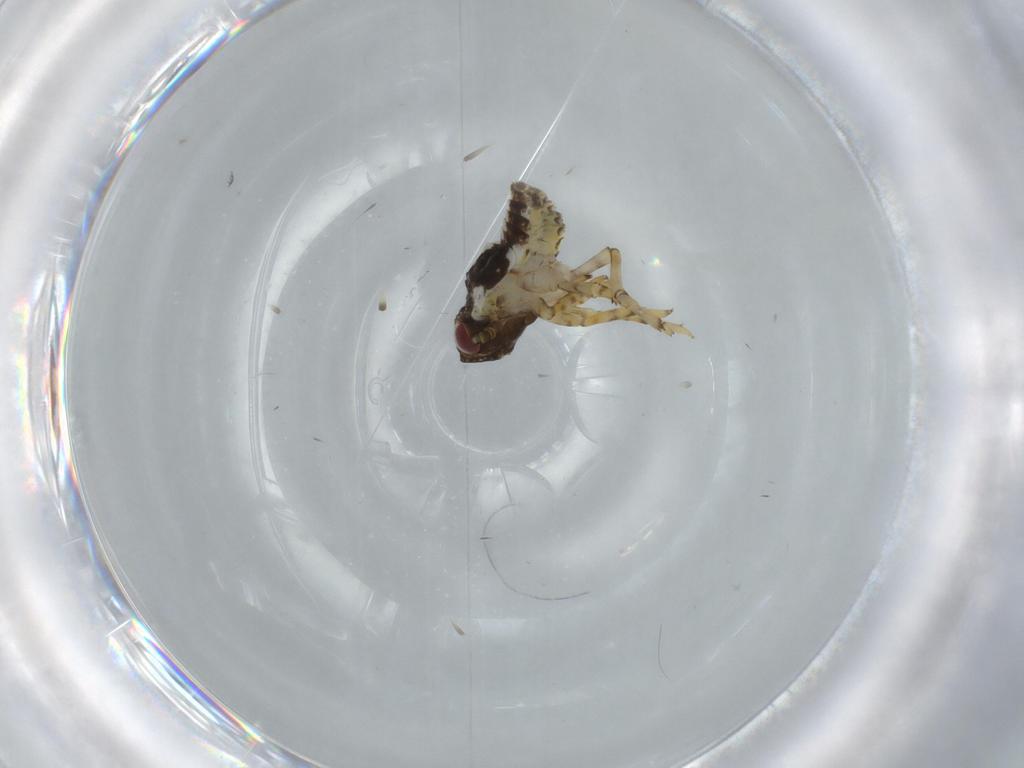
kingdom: Animalia
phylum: Arthropoda
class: Insecta
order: Hemiptera
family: Issidae
